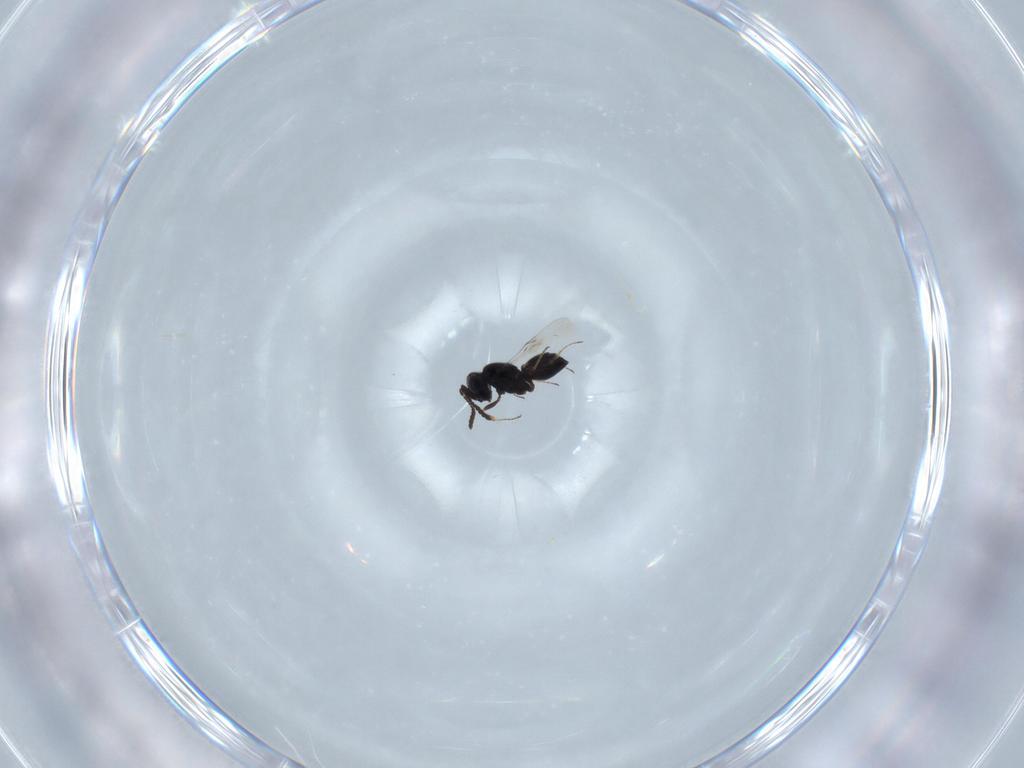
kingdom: Animalia
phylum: Arthropoda
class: Insecta
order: Hymenoptera
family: Scelionidae
